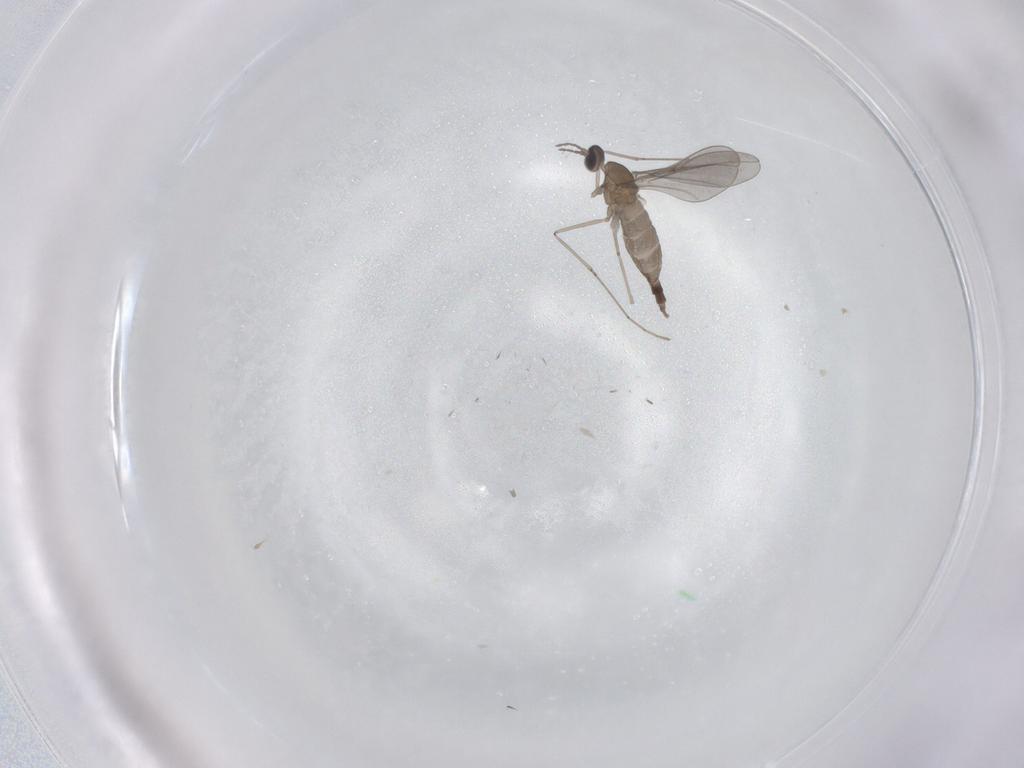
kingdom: Animalia
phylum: Arthropoda
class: Insecta
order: Diptera
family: Cecidomyiidae
